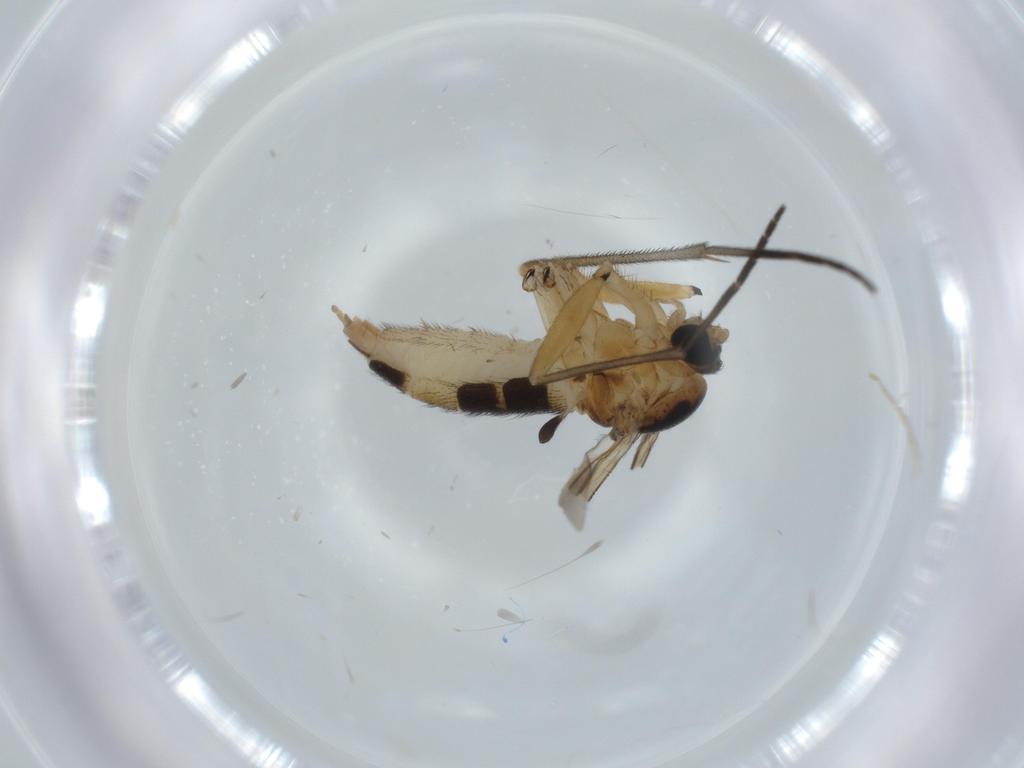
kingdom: Animalia
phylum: Arthropoda
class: Insecta
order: Diptera
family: Sciaridae
